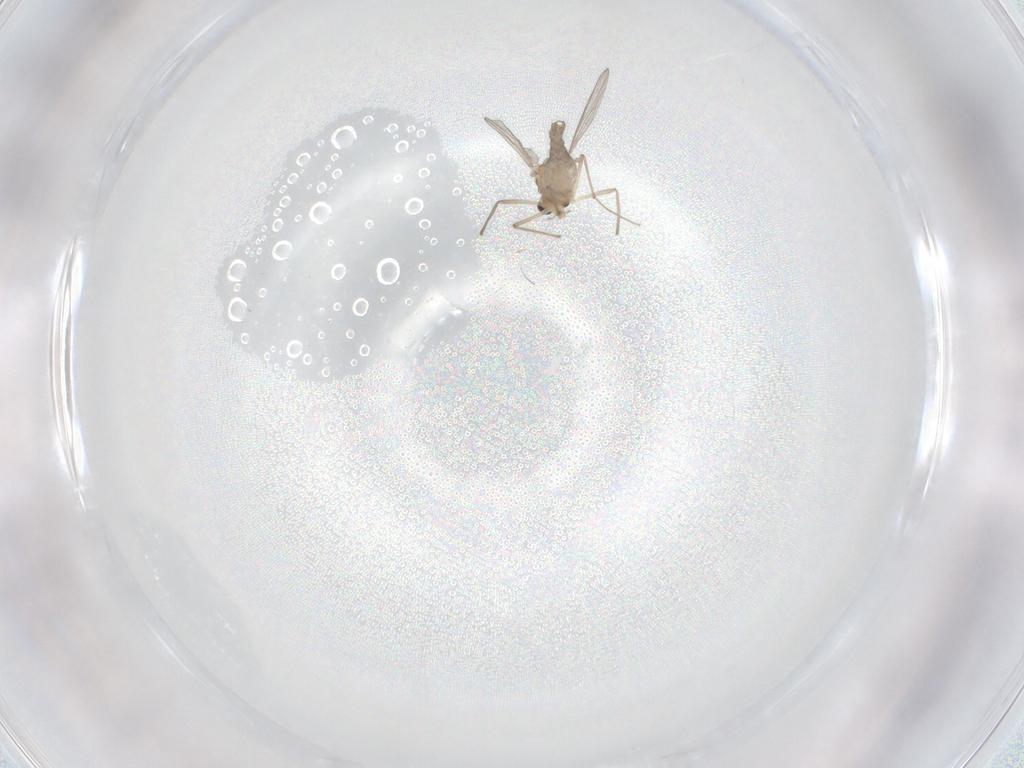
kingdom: Animalia
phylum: Arthropoda
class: Insecta
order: Diptera
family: Chironomidae
